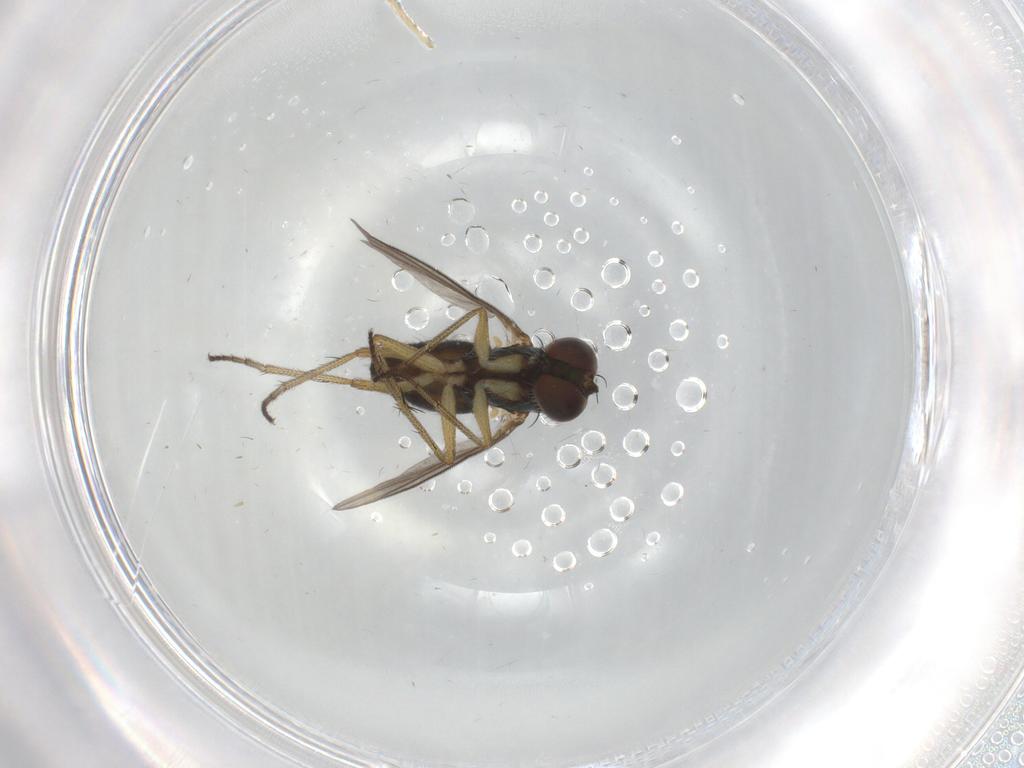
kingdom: Animalia
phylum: Arthropoda
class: Insecta
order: Diptera
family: Dolichopodidae
